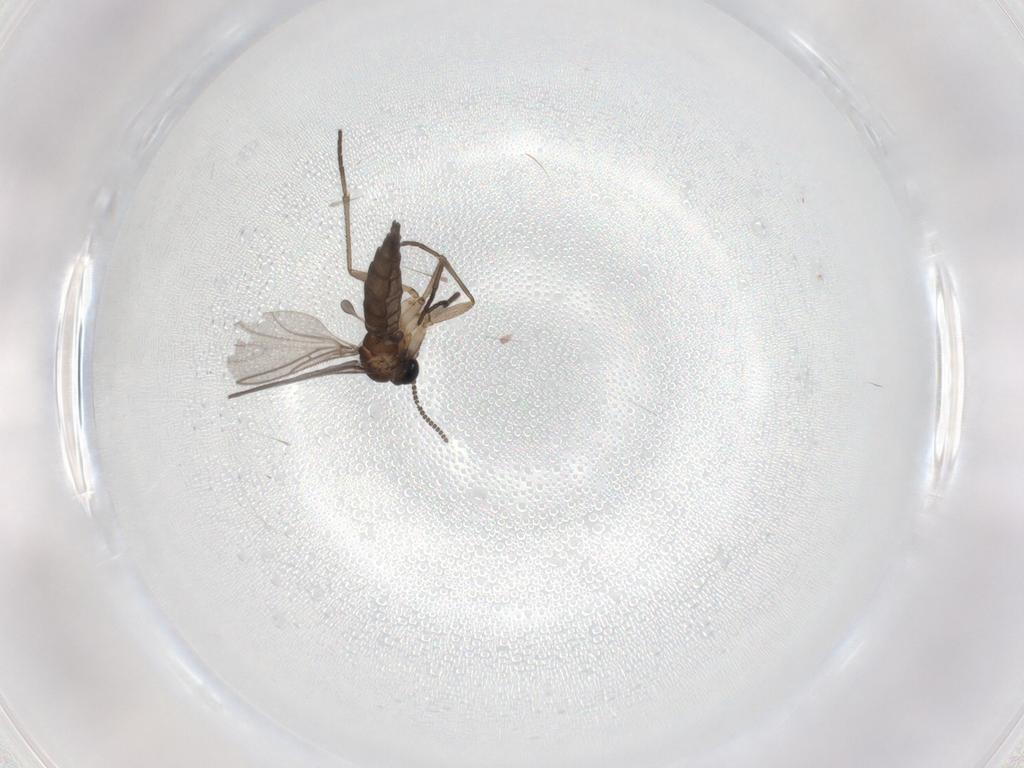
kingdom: Animalia
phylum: Arthropoda
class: Insecta
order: Diptera
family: Sciaridae
